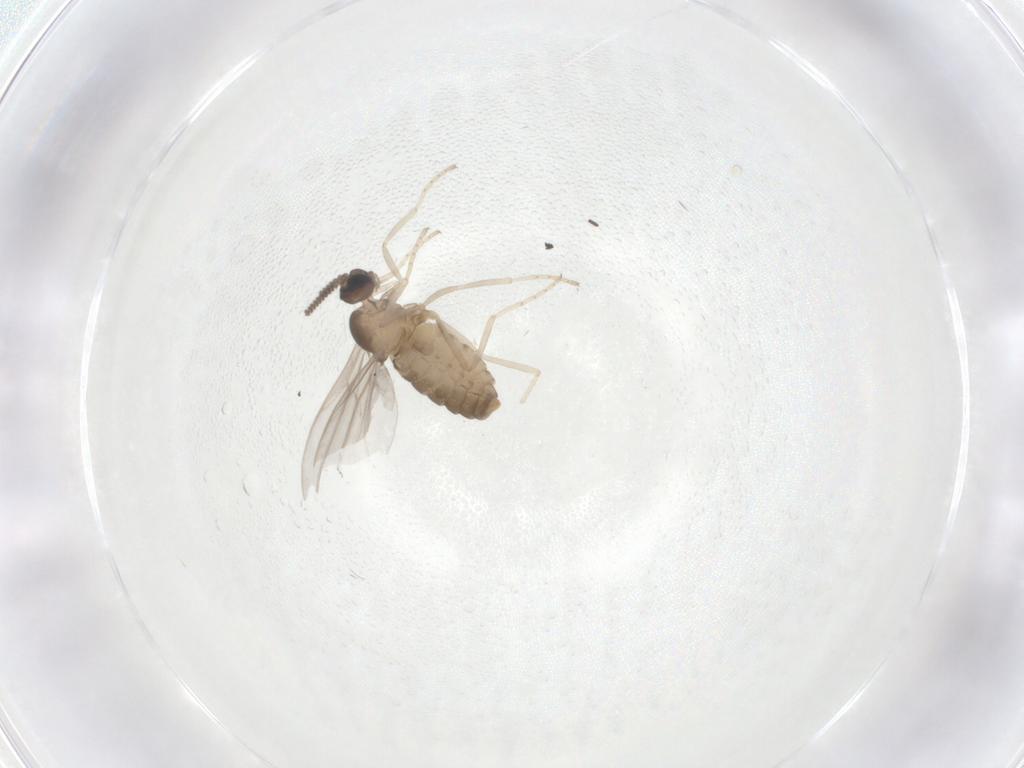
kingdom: Animalia
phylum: Arthropoda
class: Insecta
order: Diptera
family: Cecidomyiidae
